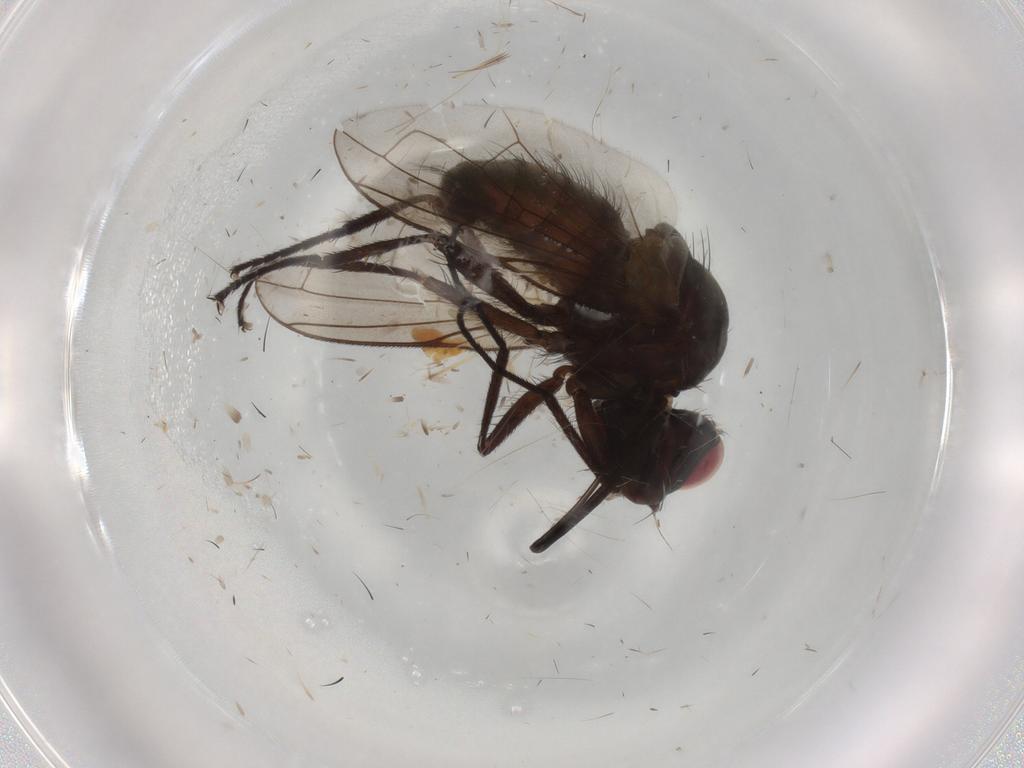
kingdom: Animalia
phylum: Arthropoda
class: Insecta
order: Diptera
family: Tachinidae
